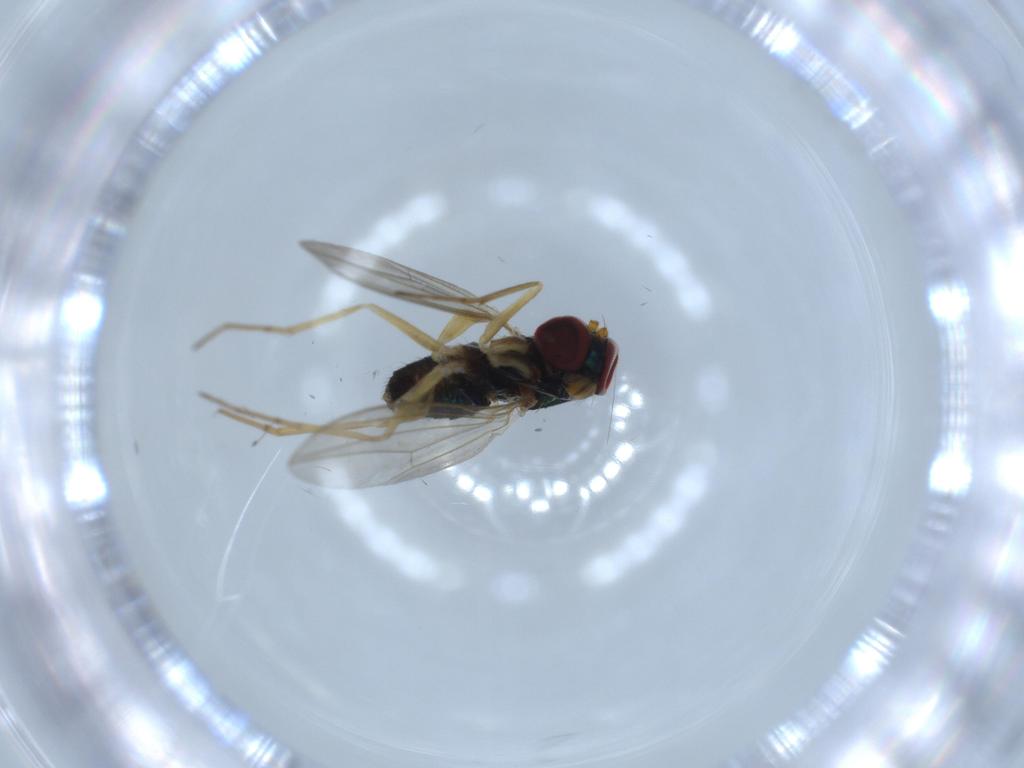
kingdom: Animalia
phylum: Arthropoda
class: Insecta
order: Diptera
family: Dolichopodidae
